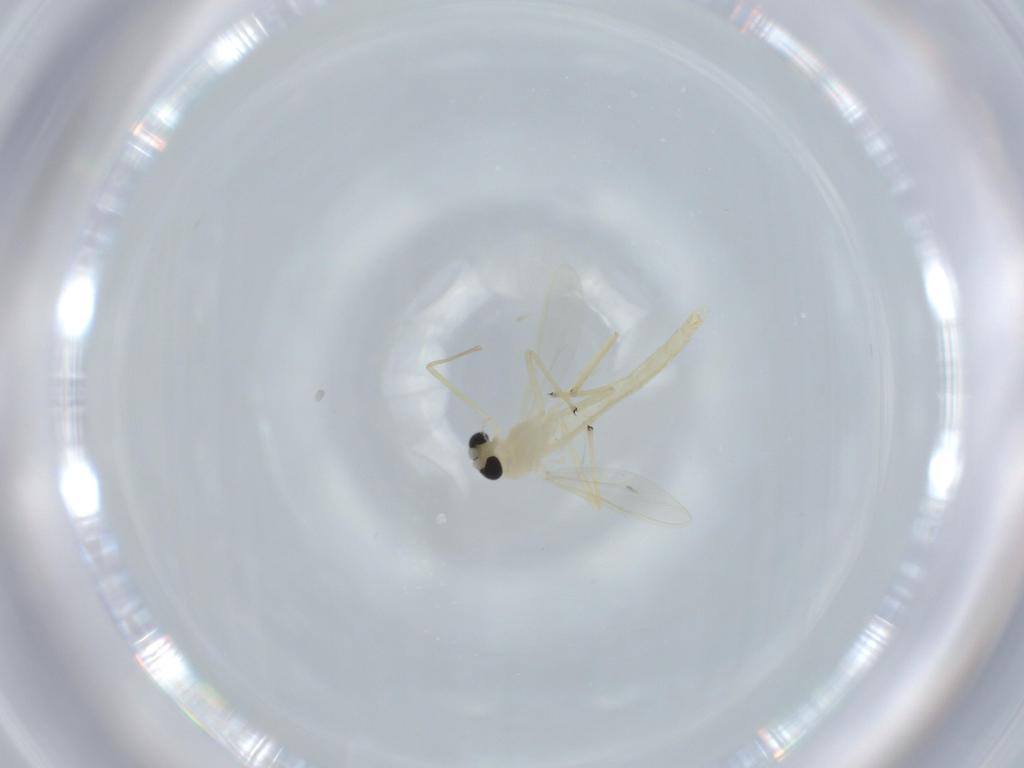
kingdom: Animalia
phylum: Arthropoda
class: Insecta
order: Diptera
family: Chironomidae
